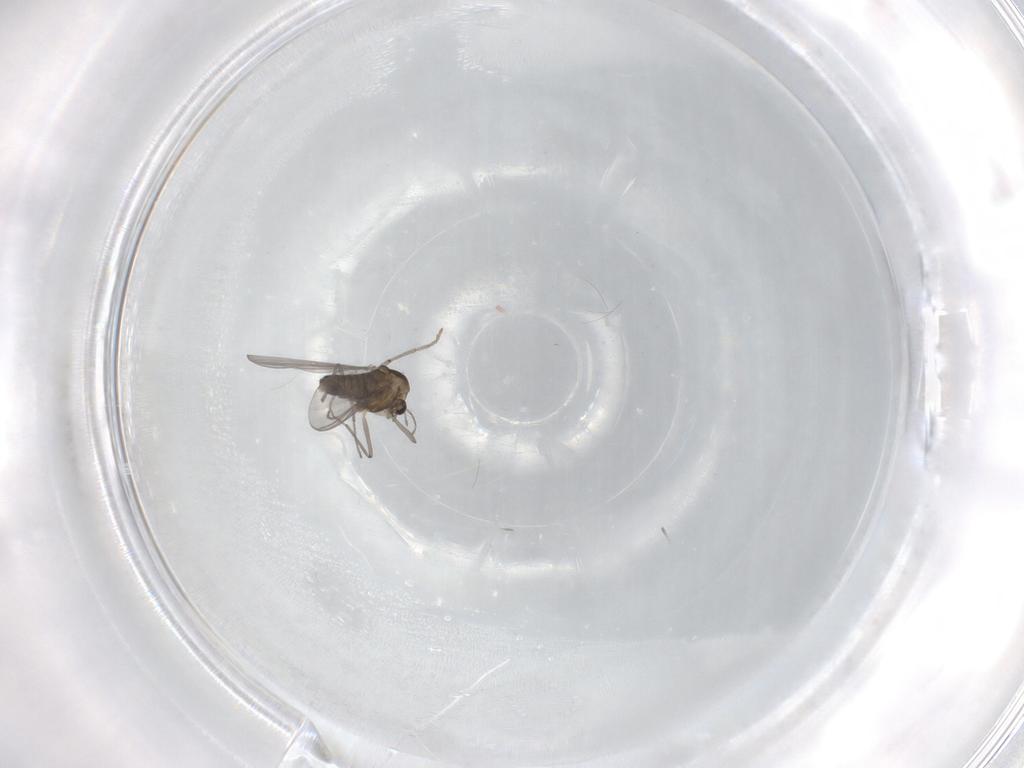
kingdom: Animalia
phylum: Arthropoda
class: Insecta
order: Diptera
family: Chironomidae
